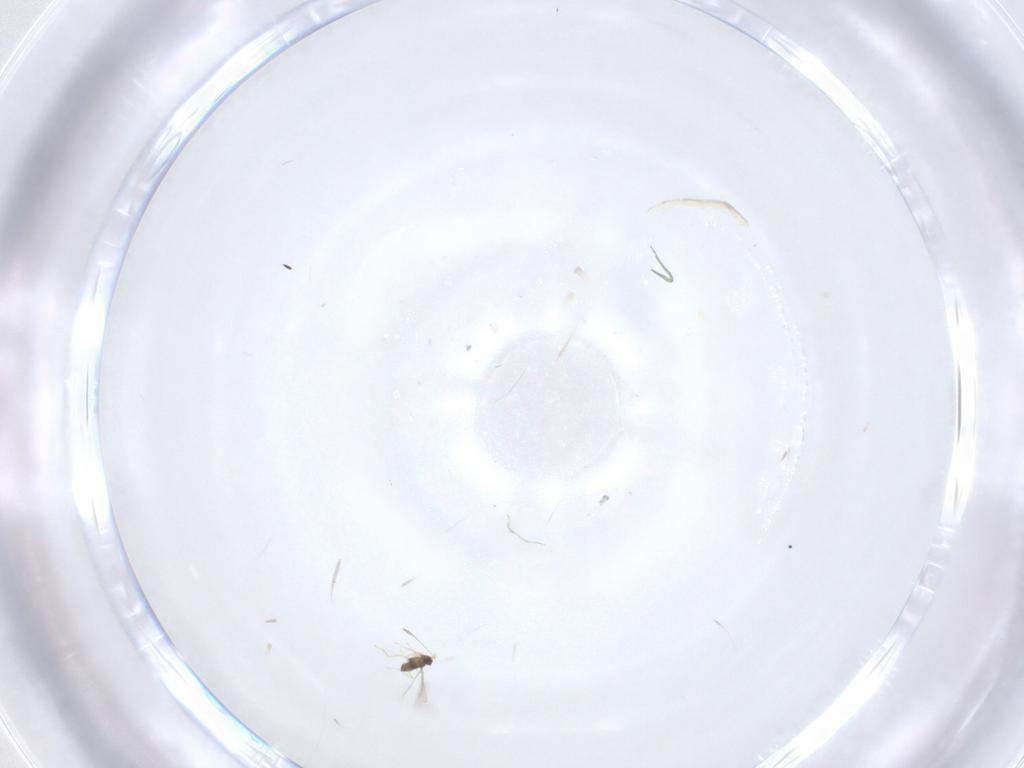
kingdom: Animalia
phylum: Arthropoda
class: Insecta
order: Hymenoptera
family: Mymaridae
